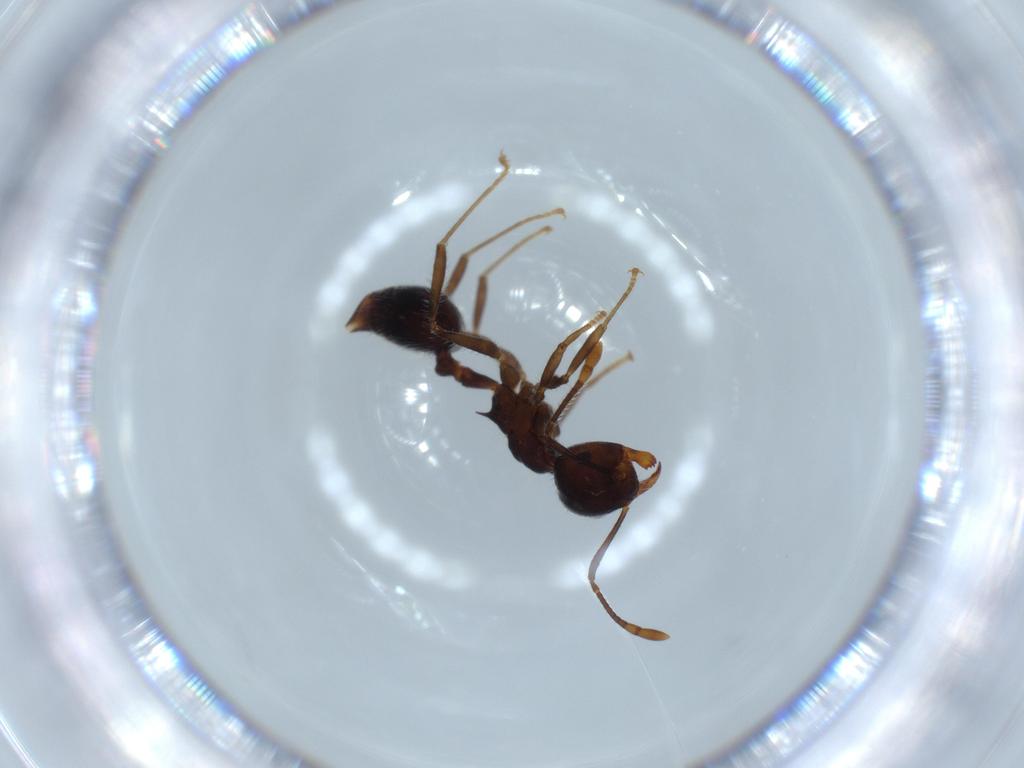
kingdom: Animalia
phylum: Arthropoda
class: Insecta
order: Hymenoptera
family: Formicidae
